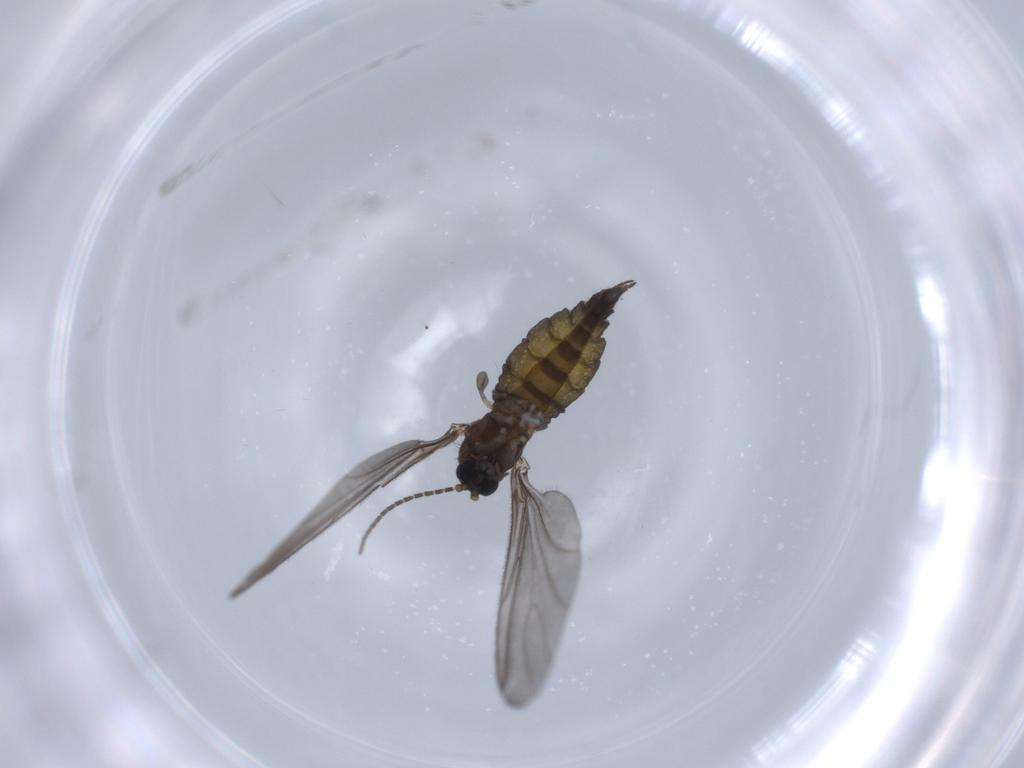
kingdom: Animalia
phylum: Arthropoda
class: Insecta
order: Diptera
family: Sciaridae
